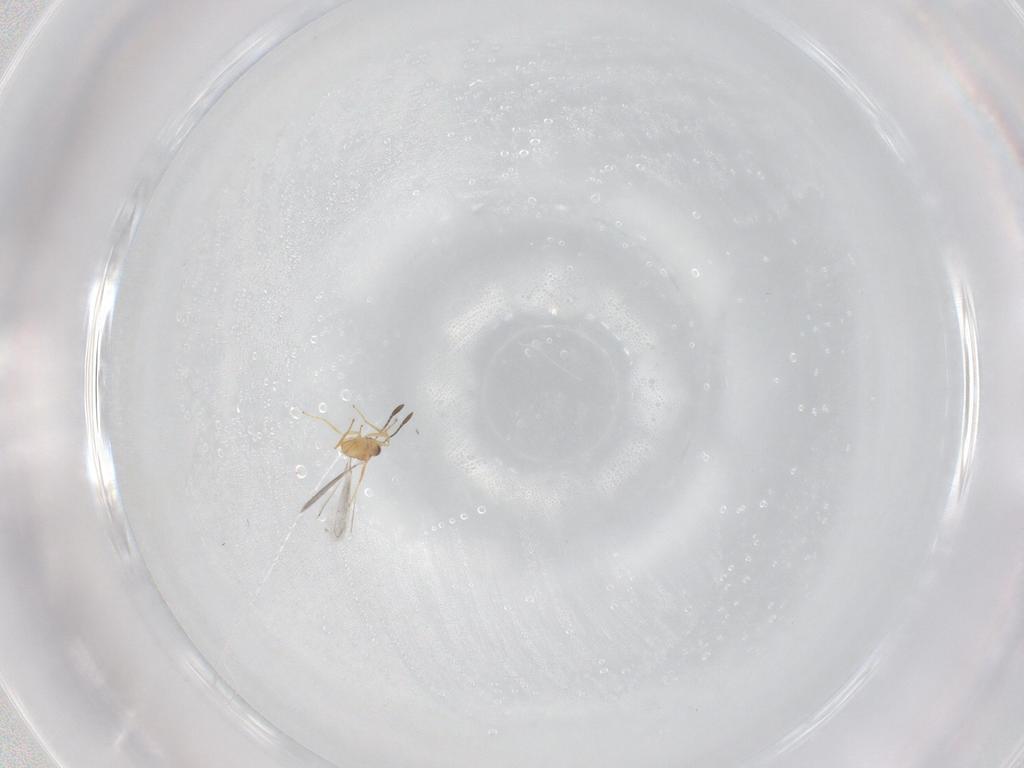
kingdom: Animalia
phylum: Arthropoda
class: Insecta
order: Hymenoptera
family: Mymaridae
